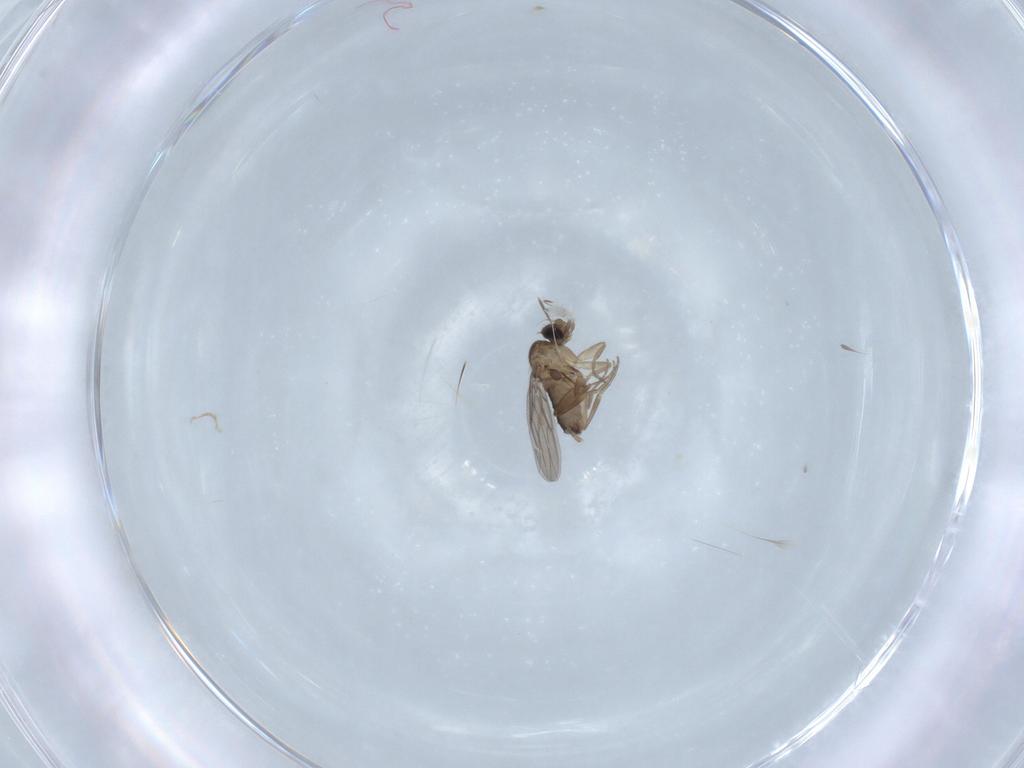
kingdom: Animalia
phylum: Arthropoda
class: Insecta
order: Diptera
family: Phoridae
